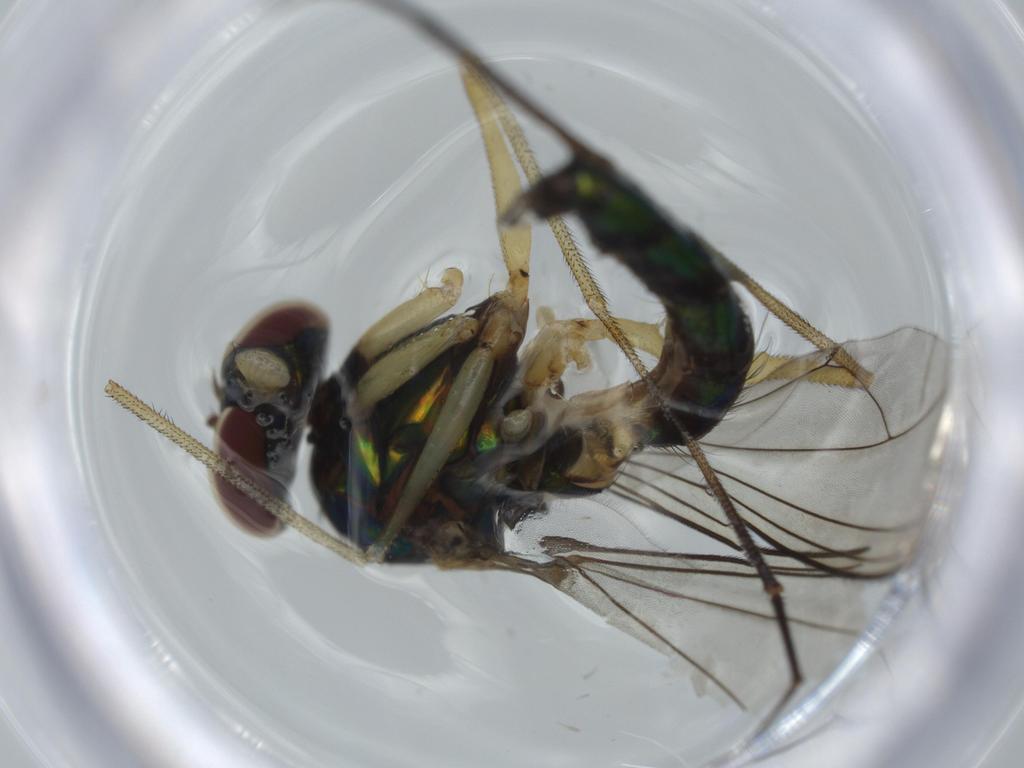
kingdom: Animalia
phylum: Arthropoda
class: Insecta
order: Diptera
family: Dolichopodidae
